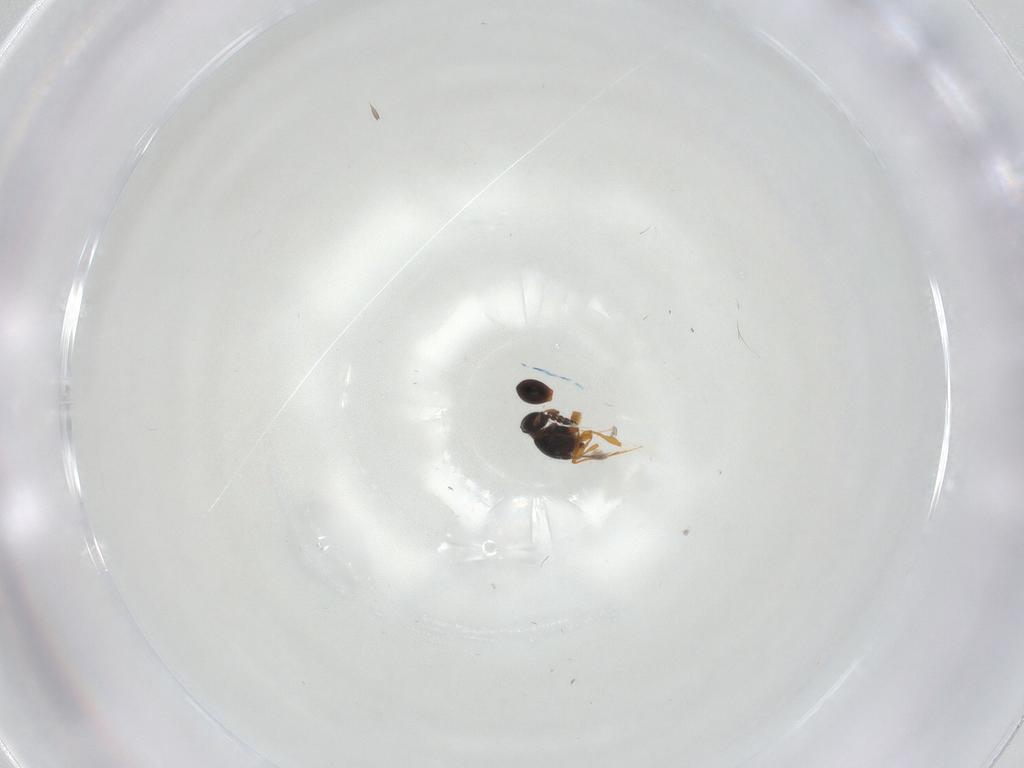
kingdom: Animalia
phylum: Arthropoda
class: Insecta
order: Hymenoptera
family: Platygastridae
